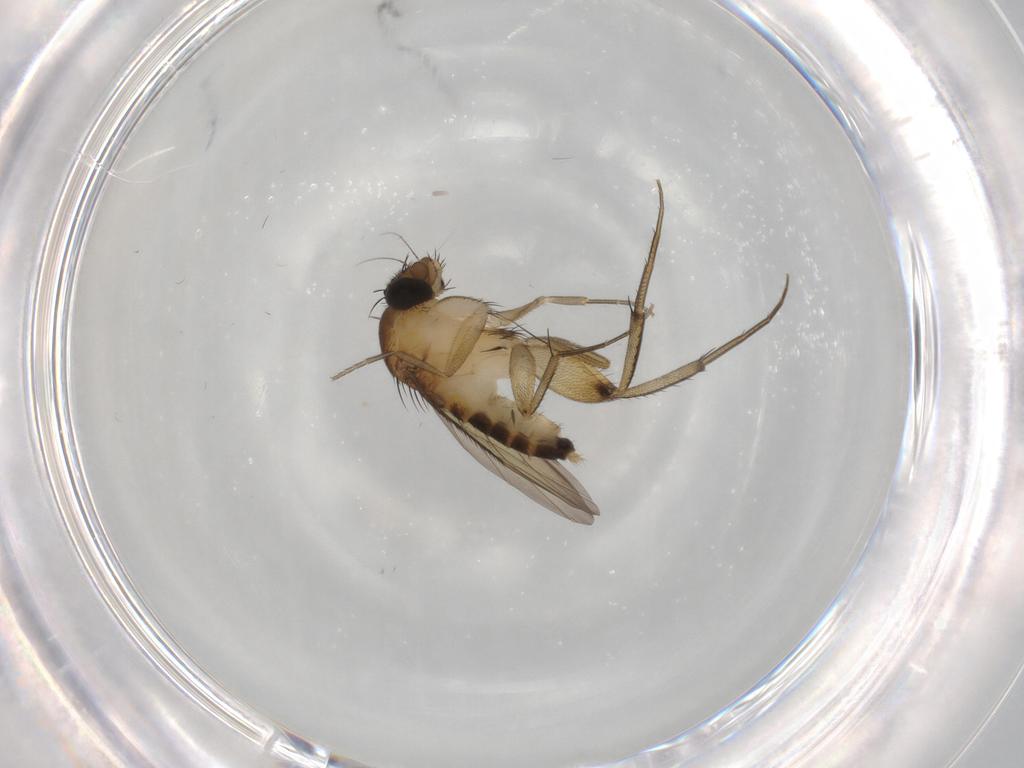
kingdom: Animalia
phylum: Arthropoda
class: Insecta
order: Diptera
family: Phoridae
